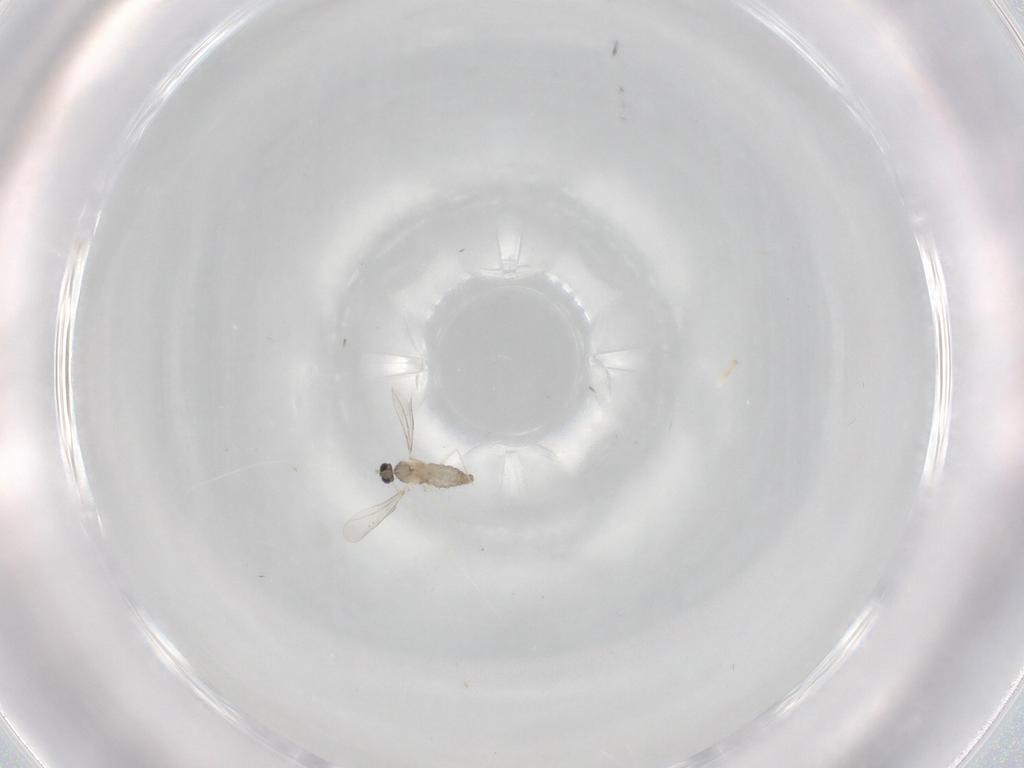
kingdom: Animalia
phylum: Arthropoda
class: Insecta
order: Diptera
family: Cecidomyiidae
